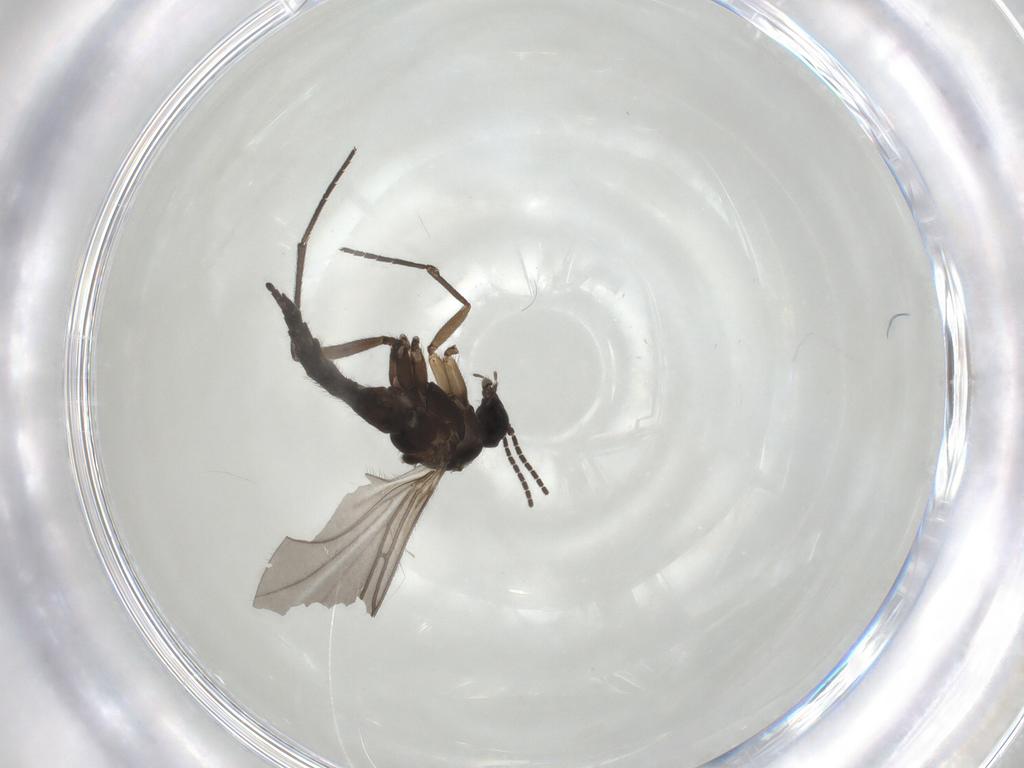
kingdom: Animalia
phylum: Arthropoda
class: Insecta
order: Diptera
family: Sciaridae
